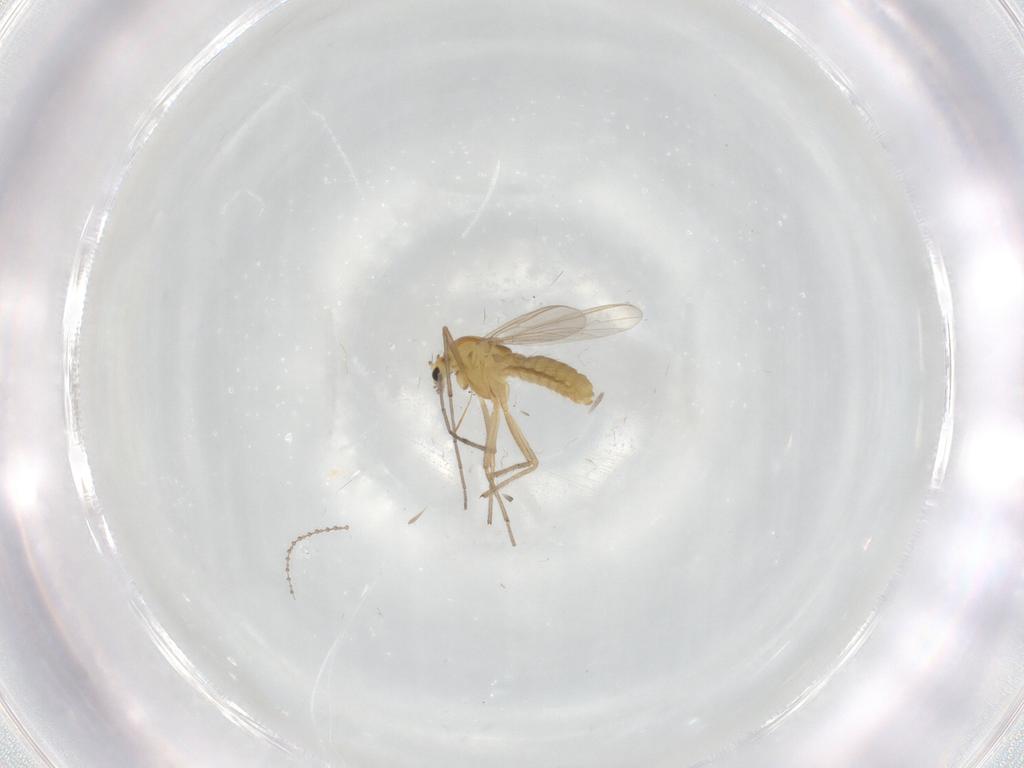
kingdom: Animalia
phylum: Arthropoda
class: Insecta
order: Diptera
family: Chironomidae
